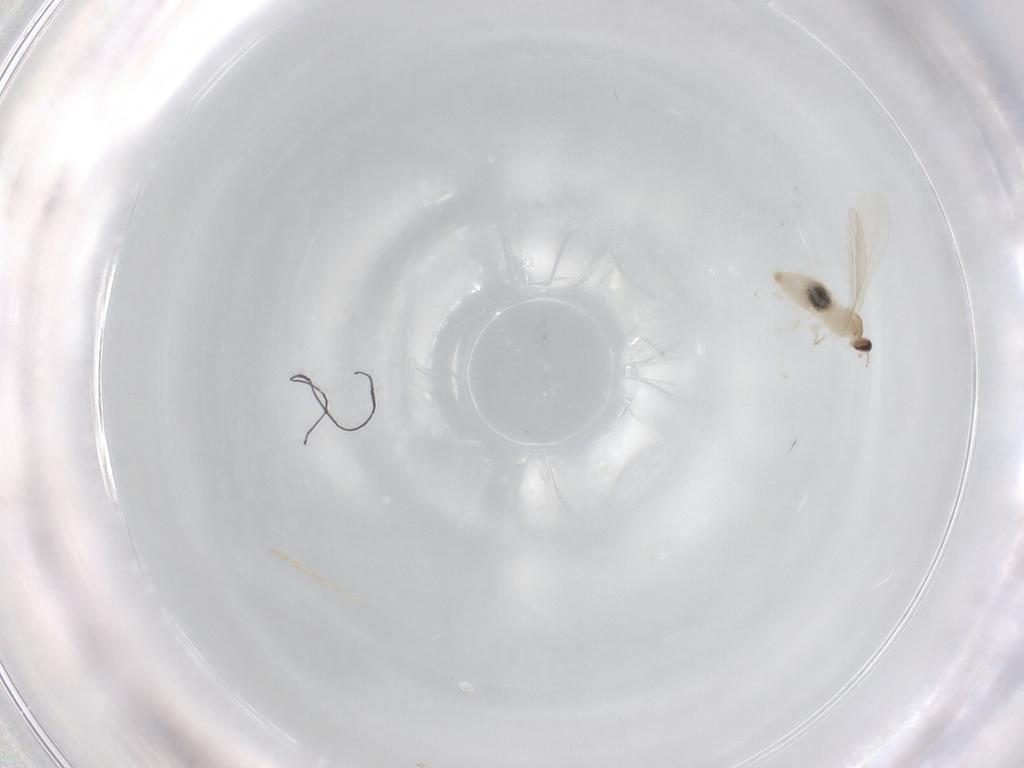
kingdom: Animalia
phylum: Arthropoda
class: Insecta
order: Diptera
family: Cecidomyiidae
